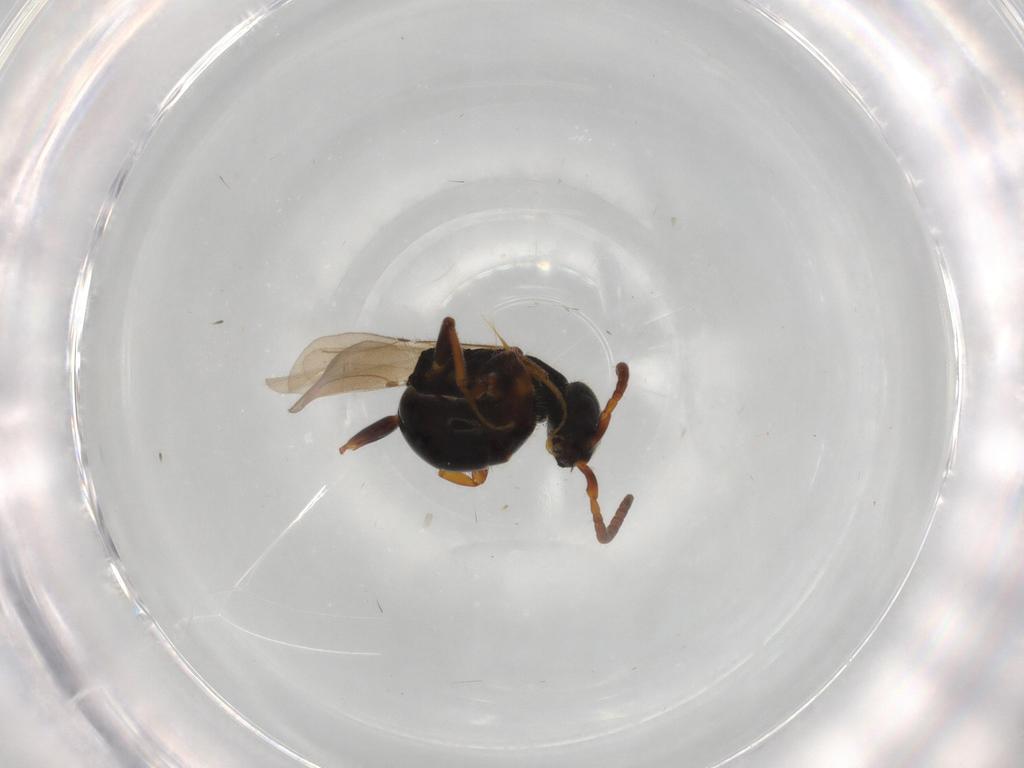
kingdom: Animalia
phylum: Arthropoda
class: Insecta
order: Hymenoptera
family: Bethylidae
